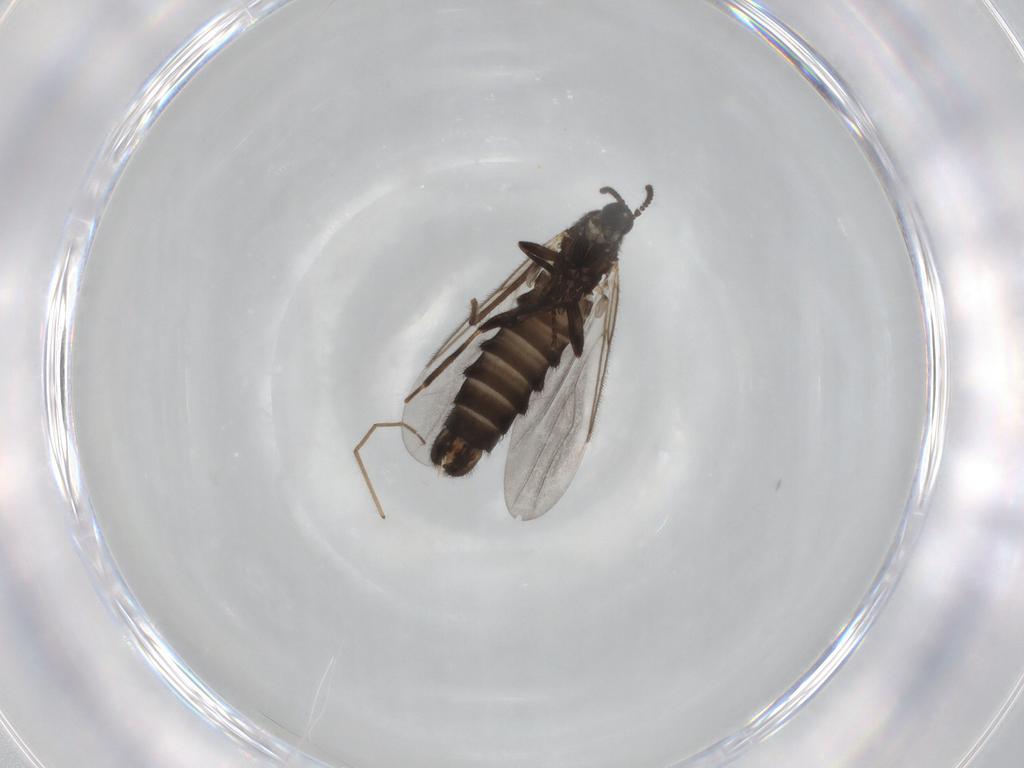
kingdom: Animalia
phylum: Arthropoda
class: Insecta
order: Diptera
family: Scatopsidae
